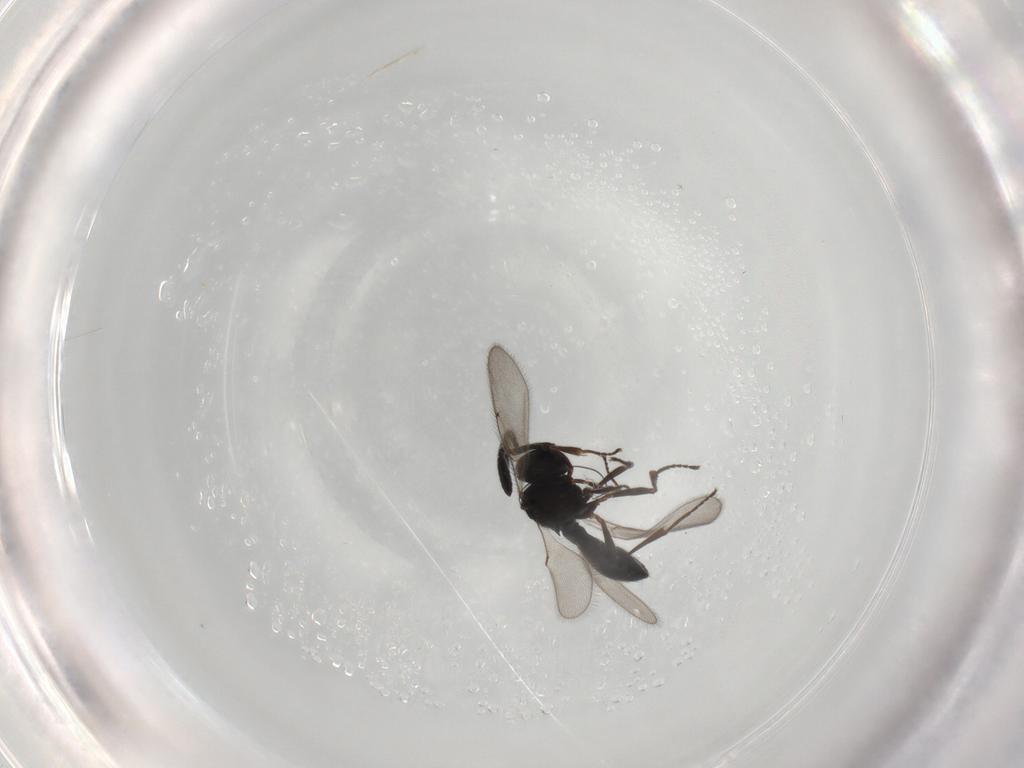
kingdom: Animalia
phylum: Arthropoda
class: Insecta
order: Hymenoptera
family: Scelionidae
